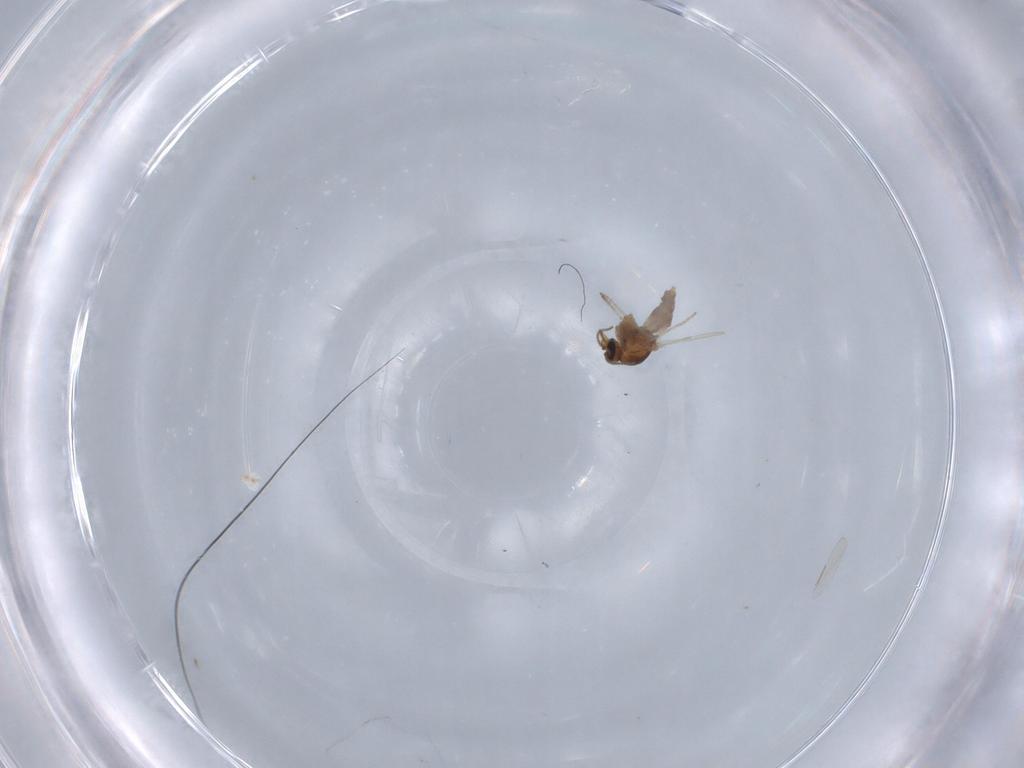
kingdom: Animalia
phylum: Arthropoda
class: Insecta
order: Diptera
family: Ceratopogonidae
